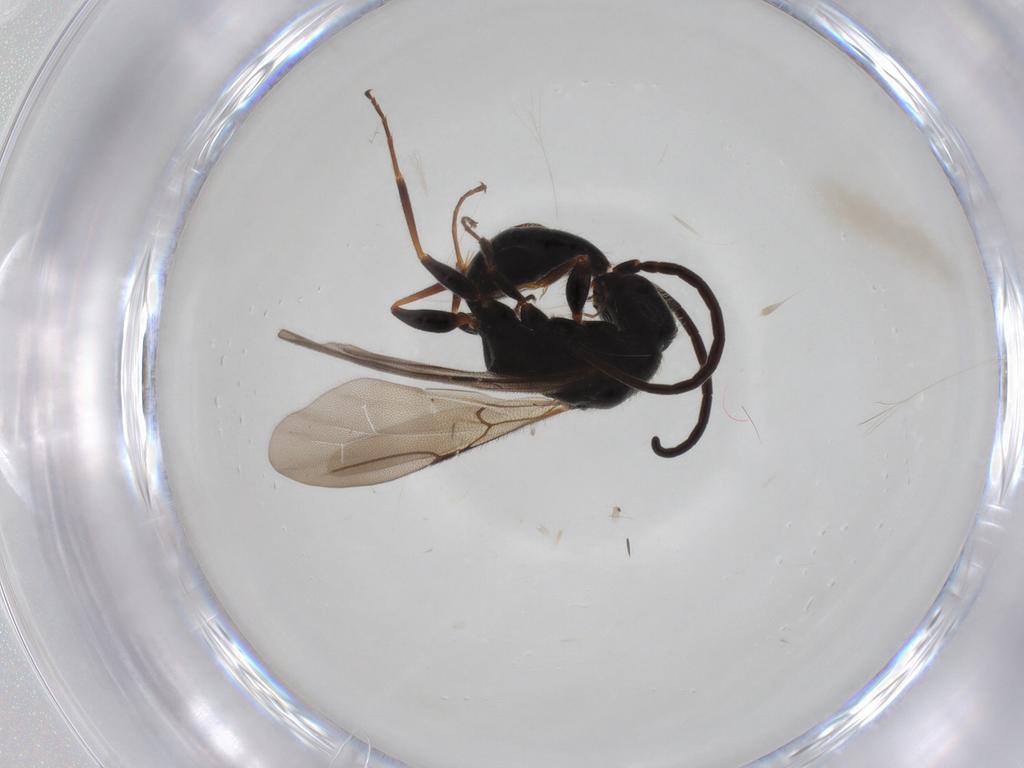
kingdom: Animalia
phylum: Arthropoda
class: Insecta
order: Hymenoptera
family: Bethylidae
